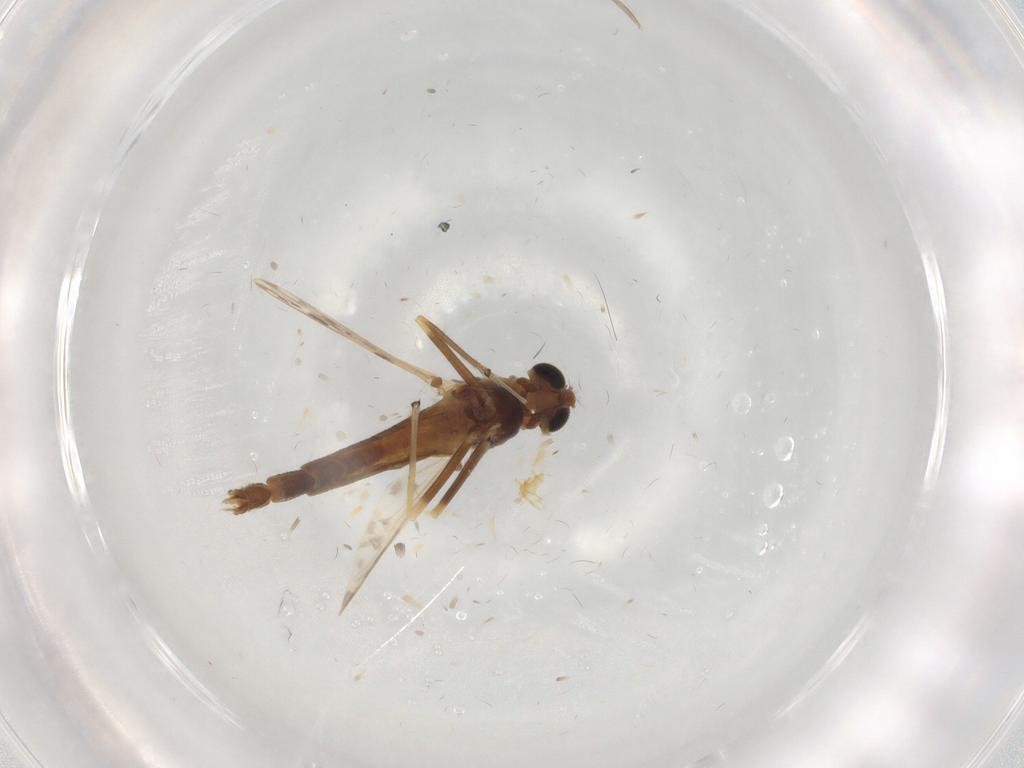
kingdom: Animalia
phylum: Arthropoda
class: Insecta
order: Diptera
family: Chironomidae
